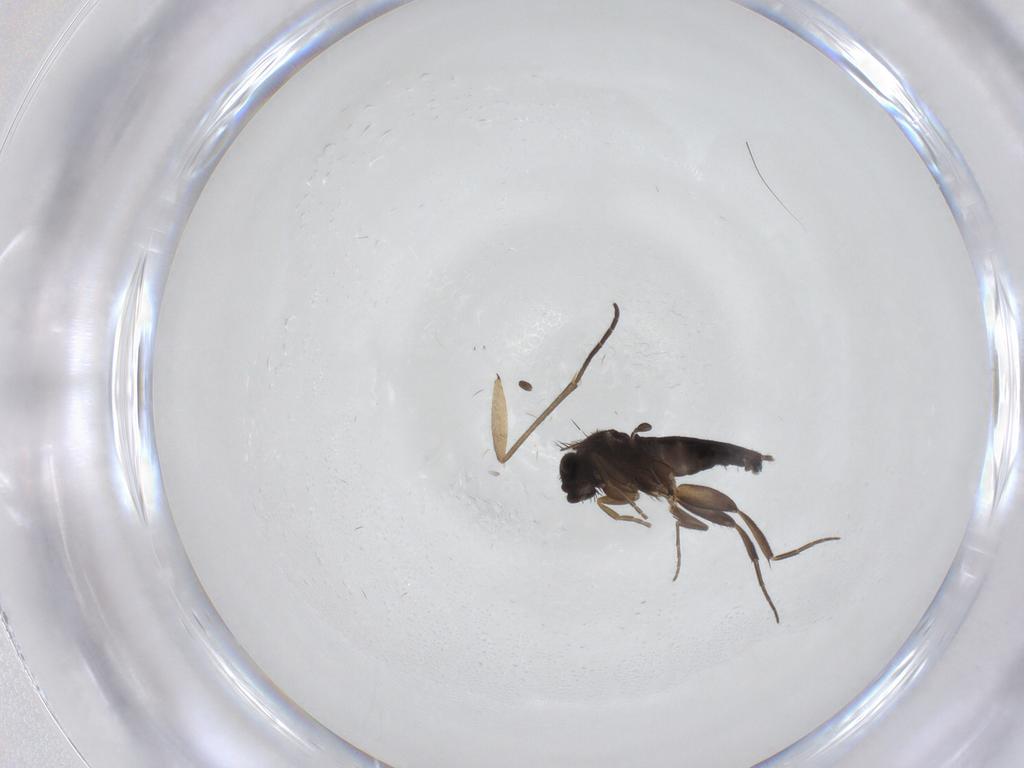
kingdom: Animalia
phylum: Arthropoda
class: Insecta
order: Diptera
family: Phoridae
